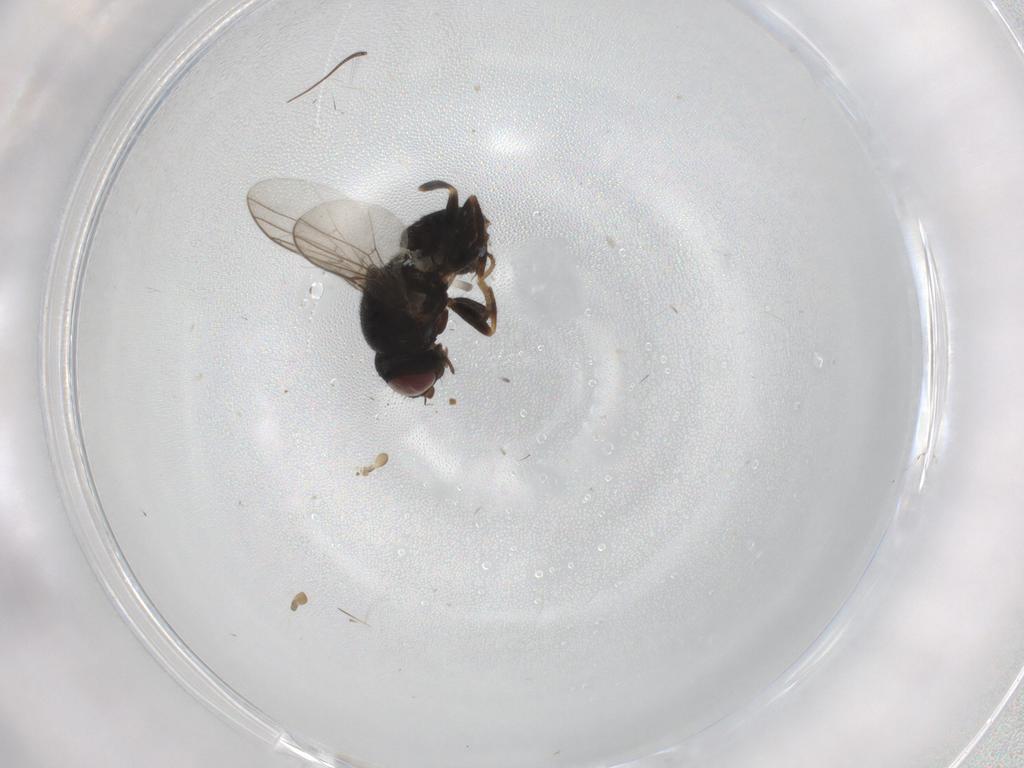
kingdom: Animalia
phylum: Arthropoda
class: Insecta
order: Diptera
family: Chloropidae
